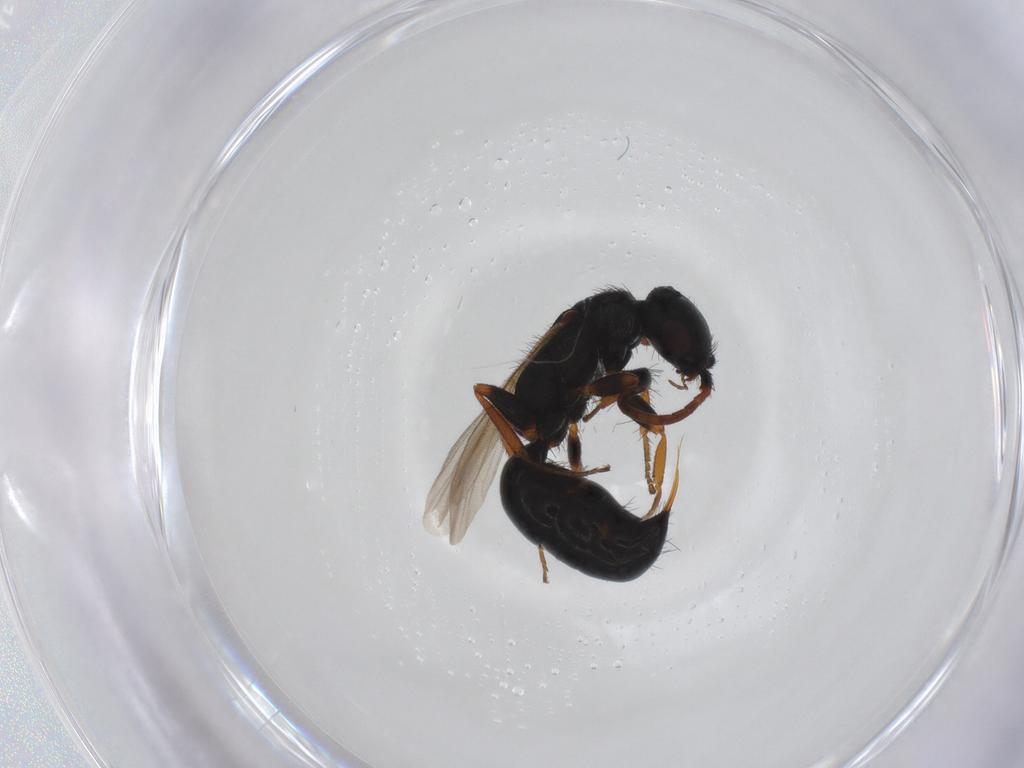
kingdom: Animalia
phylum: Arthropoda
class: Insecta
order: Hymenoptera
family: Bethylidae
